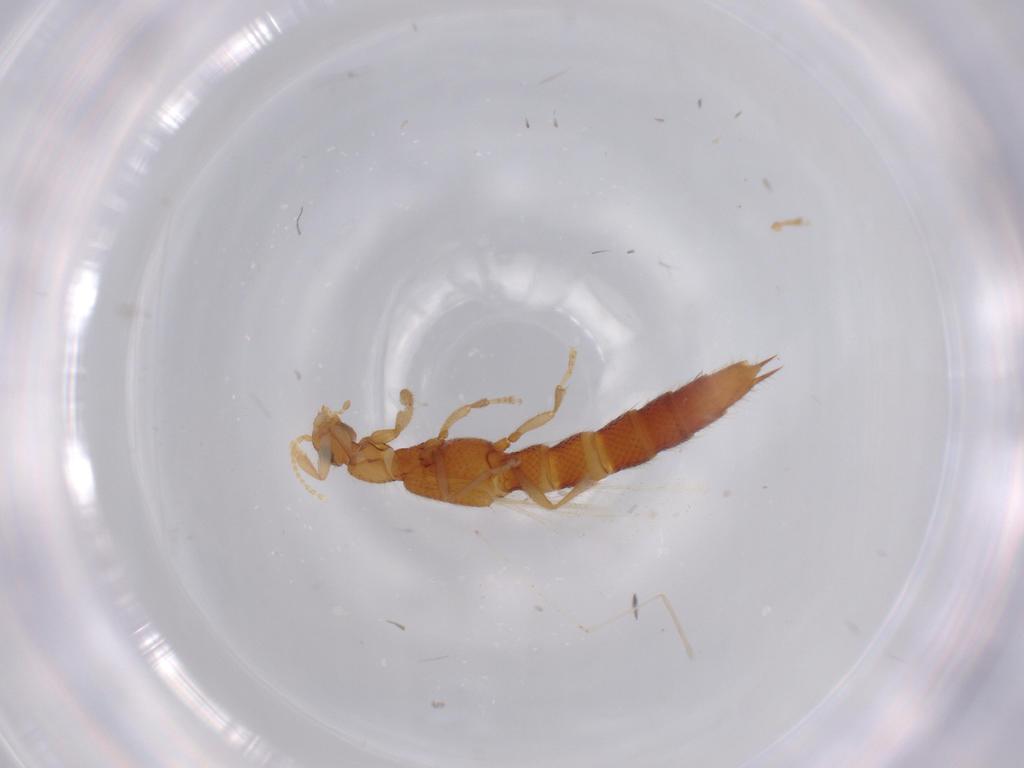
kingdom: Animalia
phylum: Arthropoda
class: Insecta
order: Coleoptera
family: Staphylinidae
